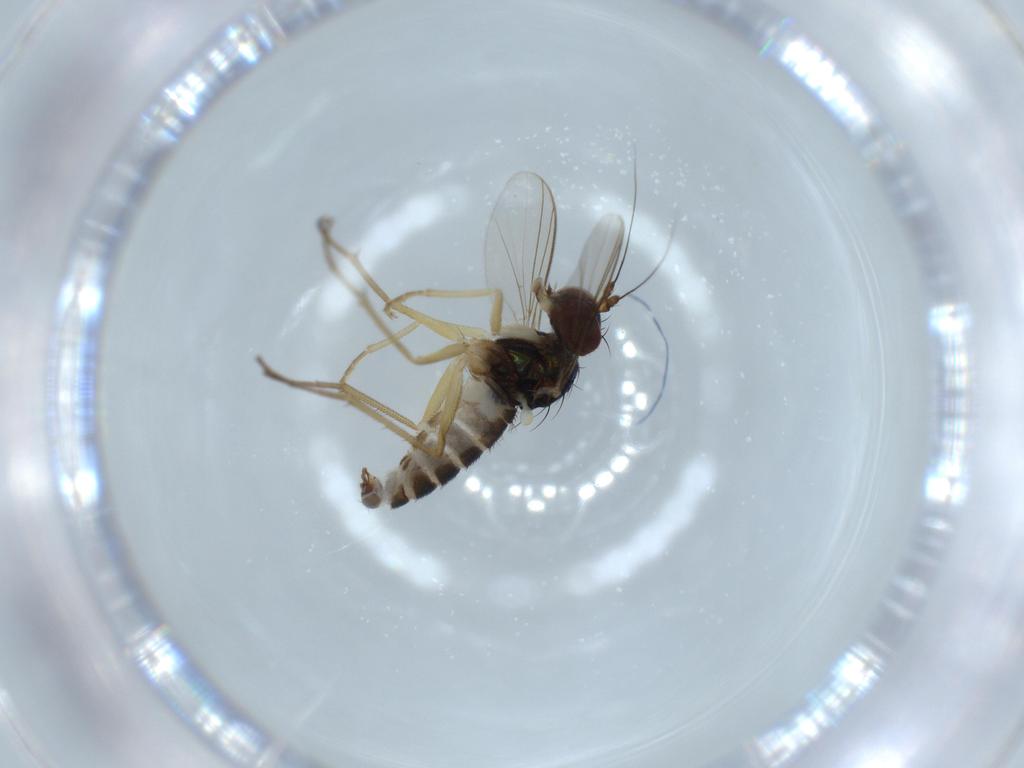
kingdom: Animalia
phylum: Arthropoda
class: Insecta
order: Diptera
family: Dolichopodidae
